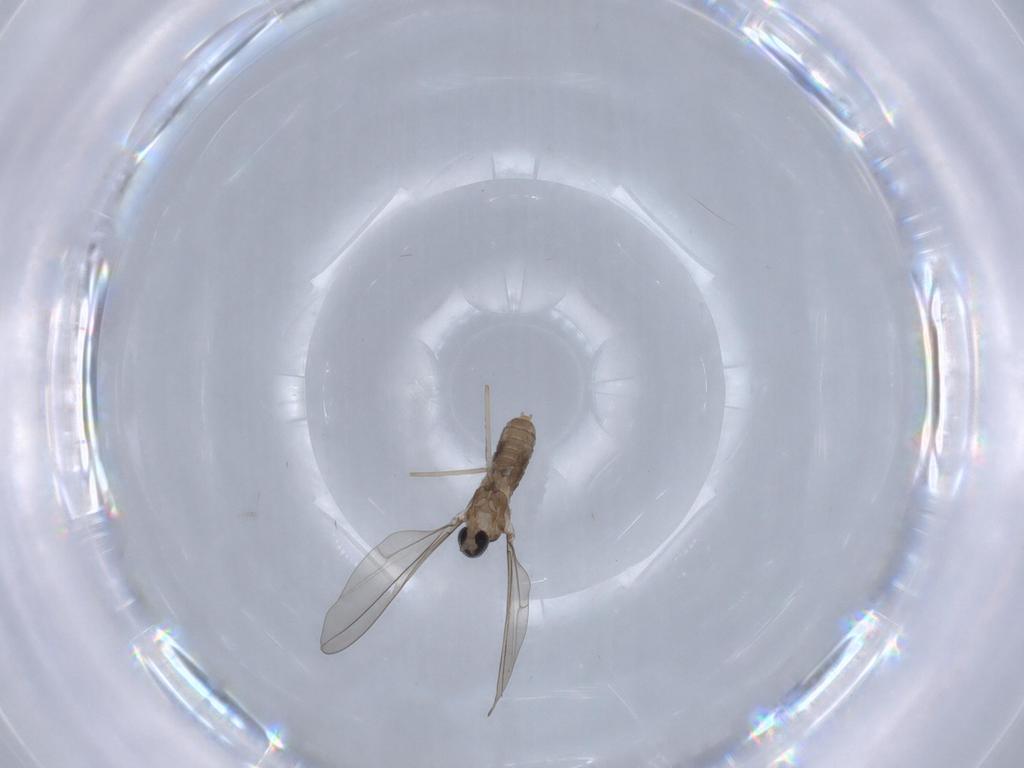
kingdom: Animalia
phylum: Arthropoda
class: Insecta
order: Diptera
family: Cecidomyiidae
